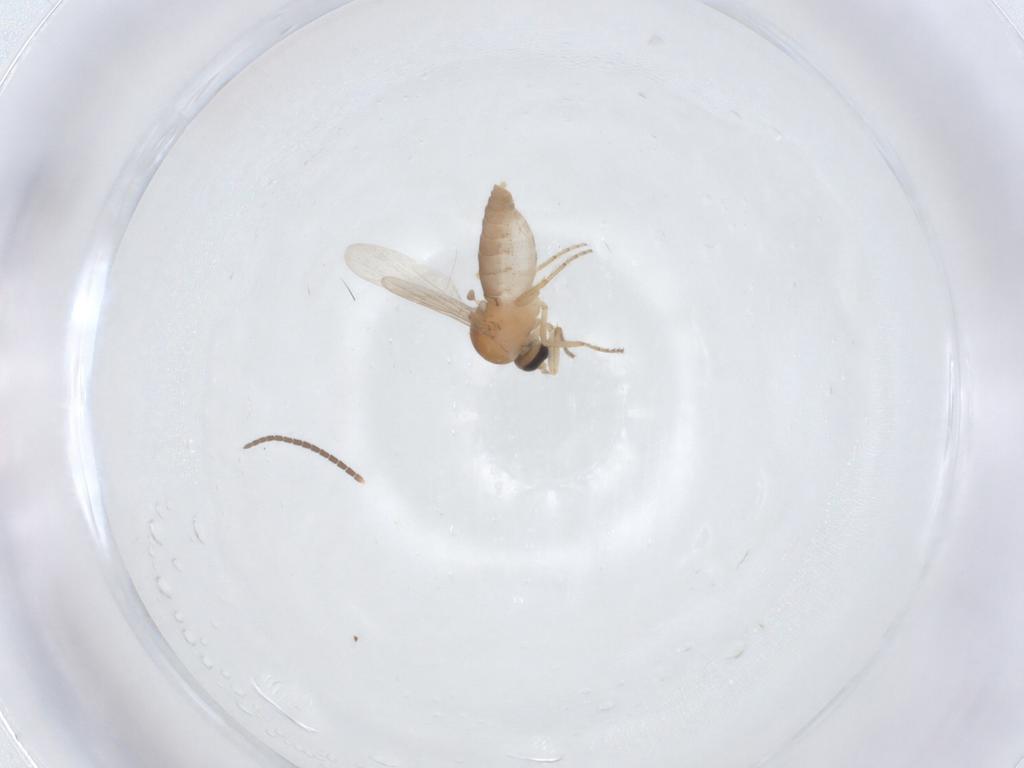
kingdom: Animalia
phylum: Arthropoda
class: Insecta
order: Diptera
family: Ceratopogonidae
